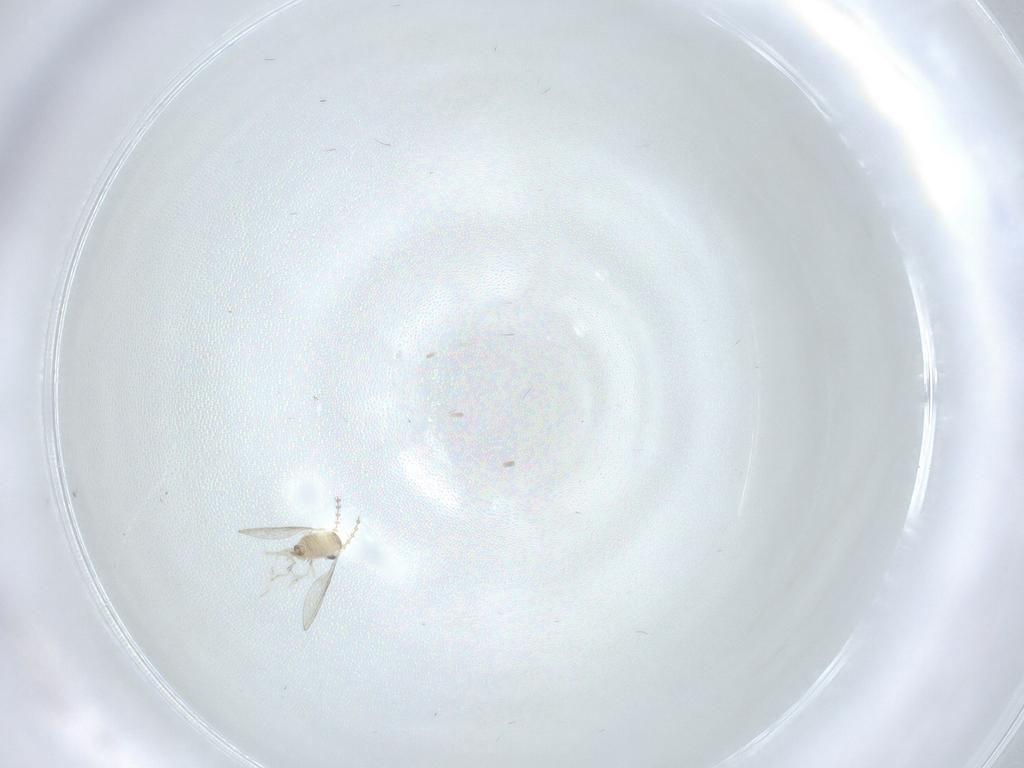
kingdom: Animalia
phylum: Arthropoda
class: Insecta
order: Diptera
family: Cecidomyiidae
